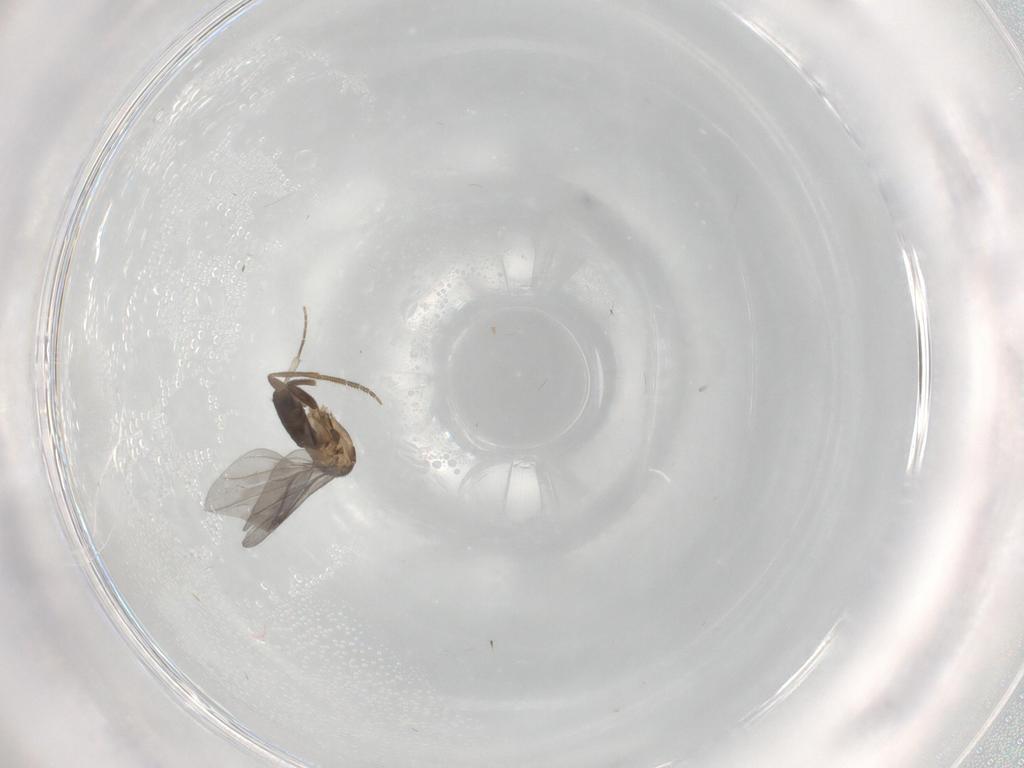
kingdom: Animalia
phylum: Arthropoda
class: Insecta
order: Diptera
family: Phoridae
